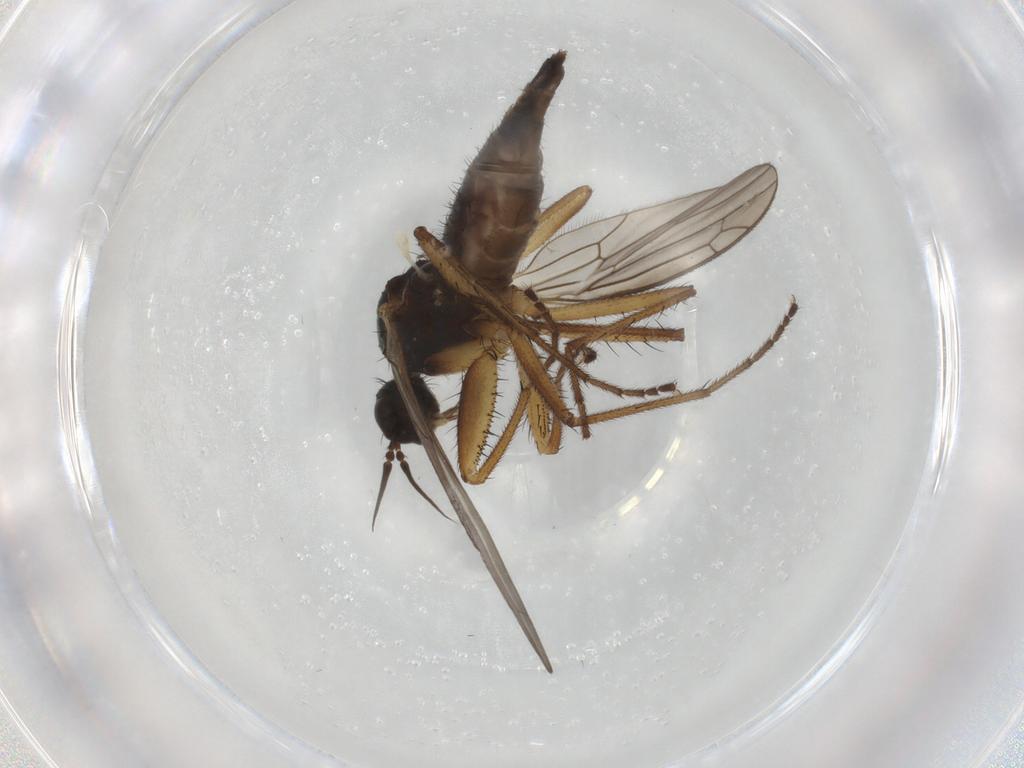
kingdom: Animalia
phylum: Arthropoda
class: Insecta
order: Diptera
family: Empididae
